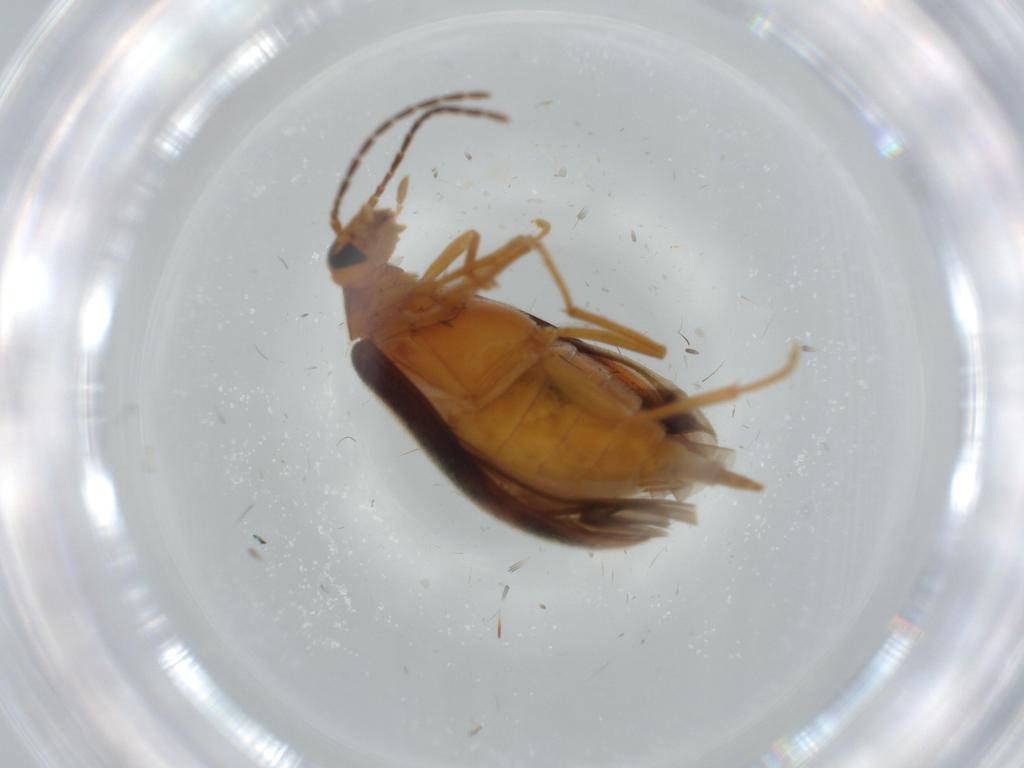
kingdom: Animalia
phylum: Arthropoda
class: Insecta
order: Coleoptera
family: Scraptiidae
